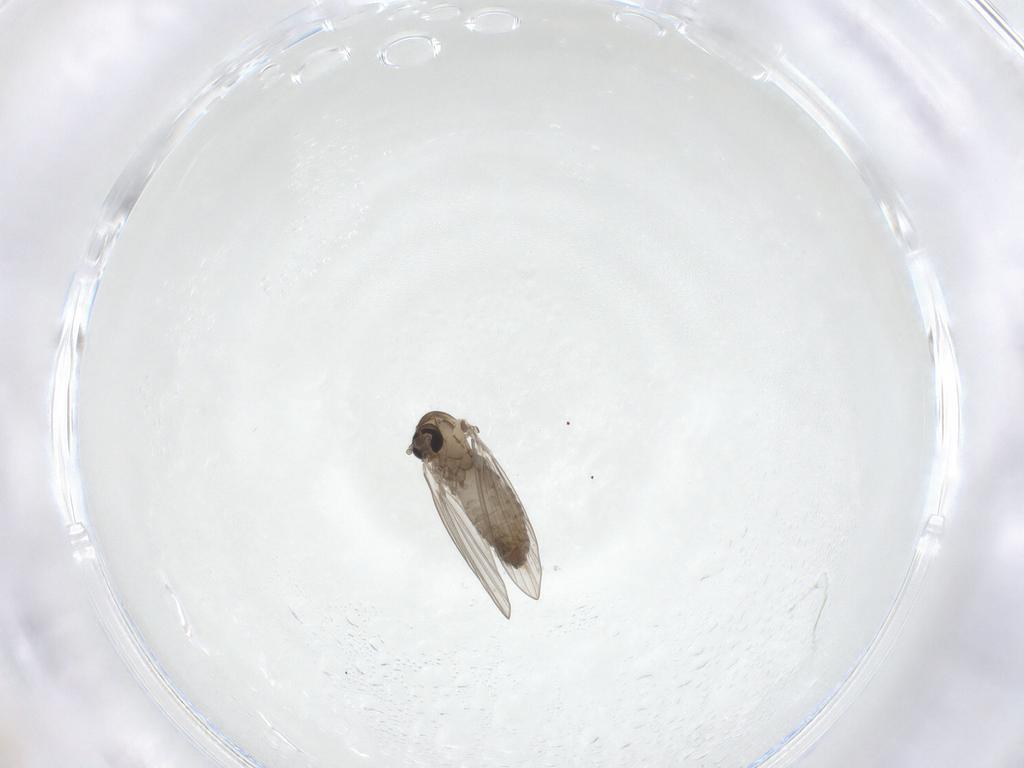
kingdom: Animalia
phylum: Arthropoda
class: Insecta
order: Diptera
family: Psychodidae
